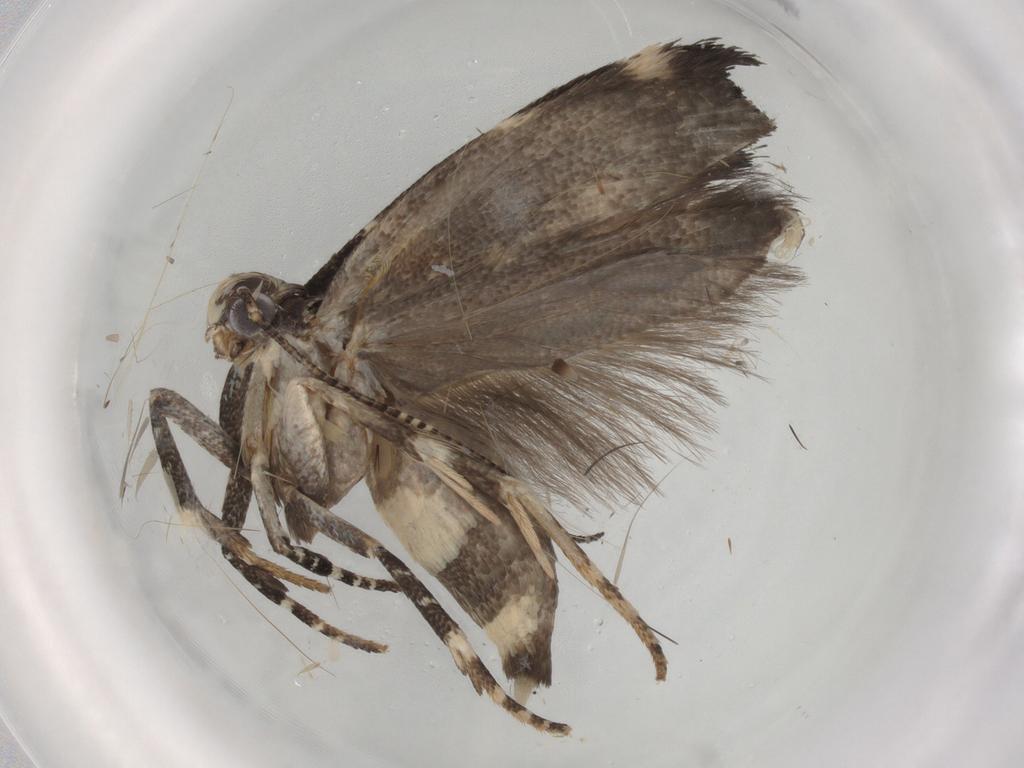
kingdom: Animalia
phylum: Arthropoda
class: Insecta
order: Lepidoptera
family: Gelechiidae
